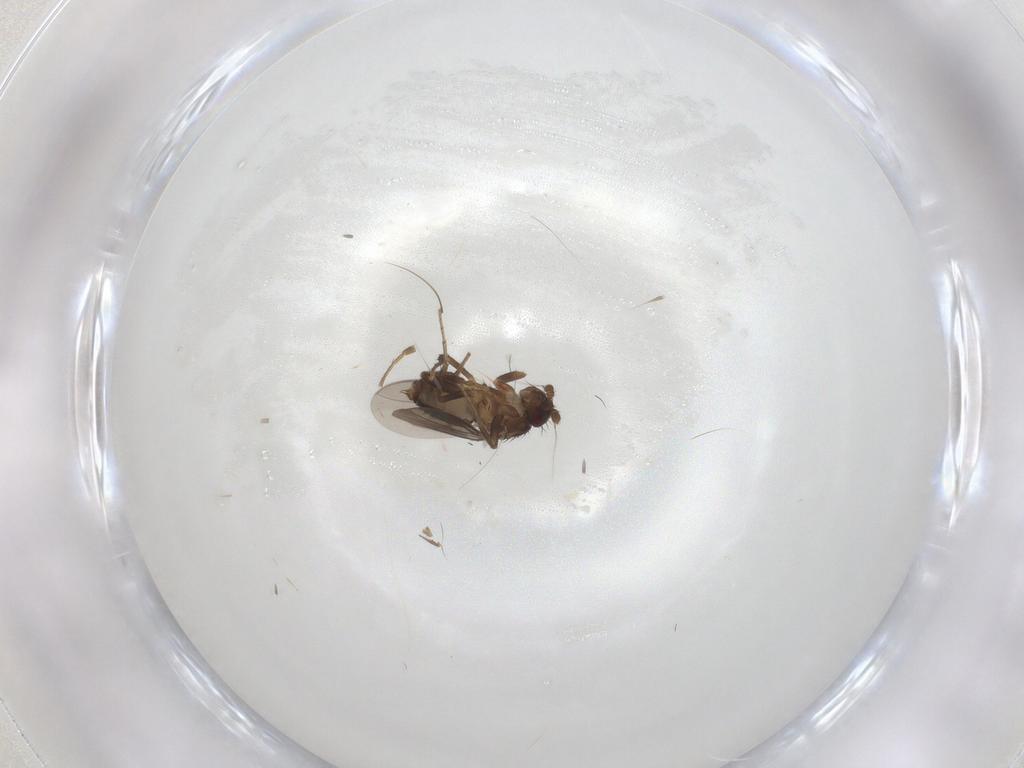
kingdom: Animalia
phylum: Arthropoda
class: Insecta
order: Diptera
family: Sphaeroceridae
